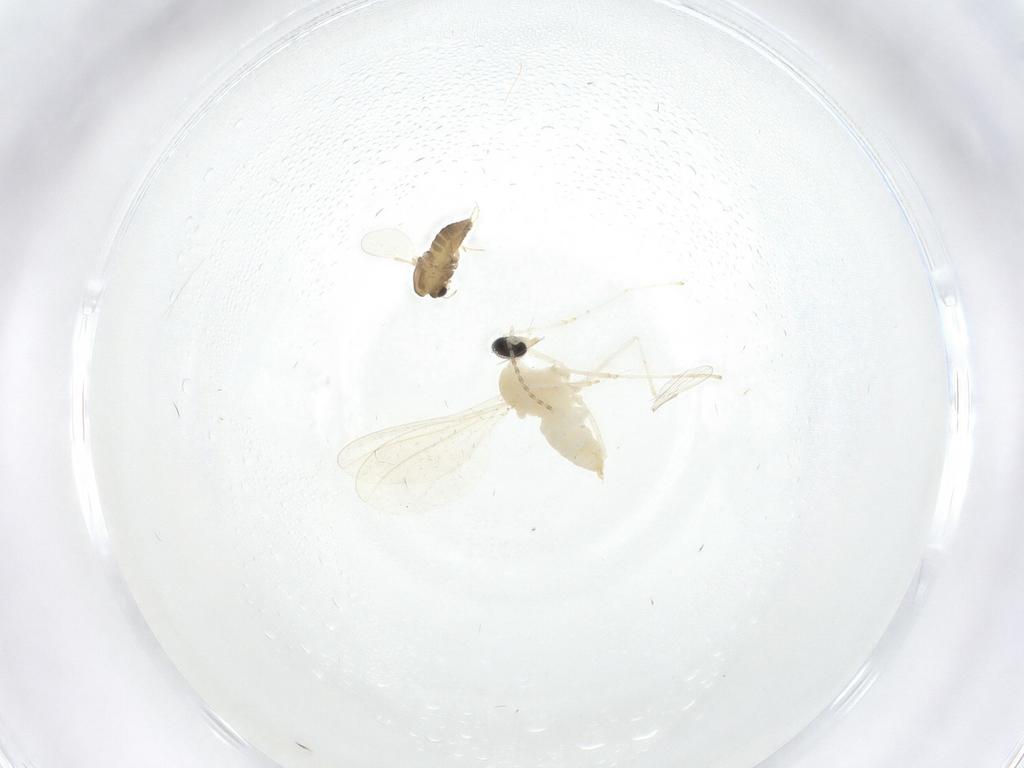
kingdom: Animalia
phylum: Arthropoda
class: Insecta
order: Diptera
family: Cecidomyiidae
